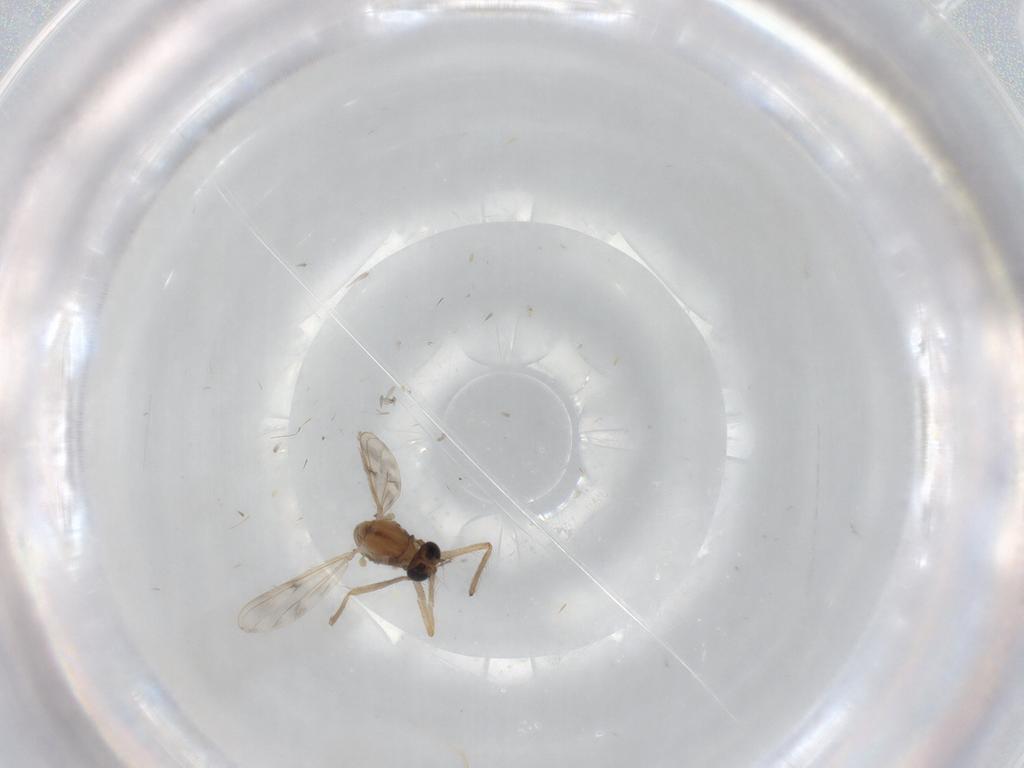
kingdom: Animalia
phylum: Arthropoda
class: Insecta
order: Diptera
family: Chironomidae
